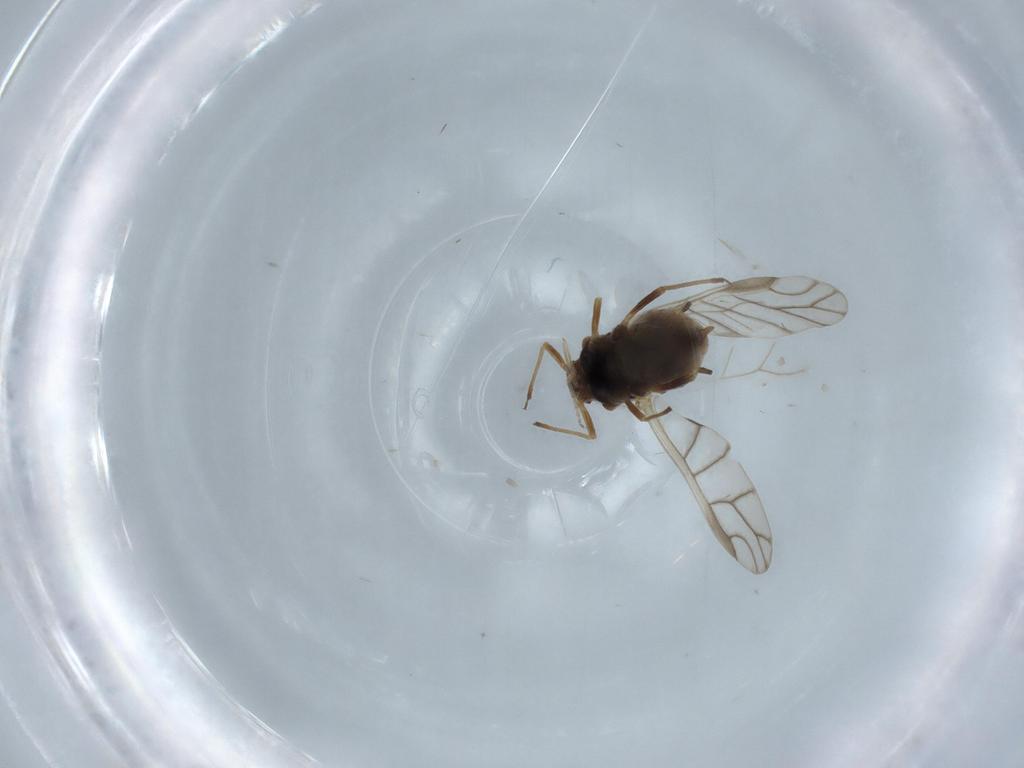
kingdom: Animalia
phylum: Arthropoda
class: Insecta
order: Hemiptera
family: Aphididae
